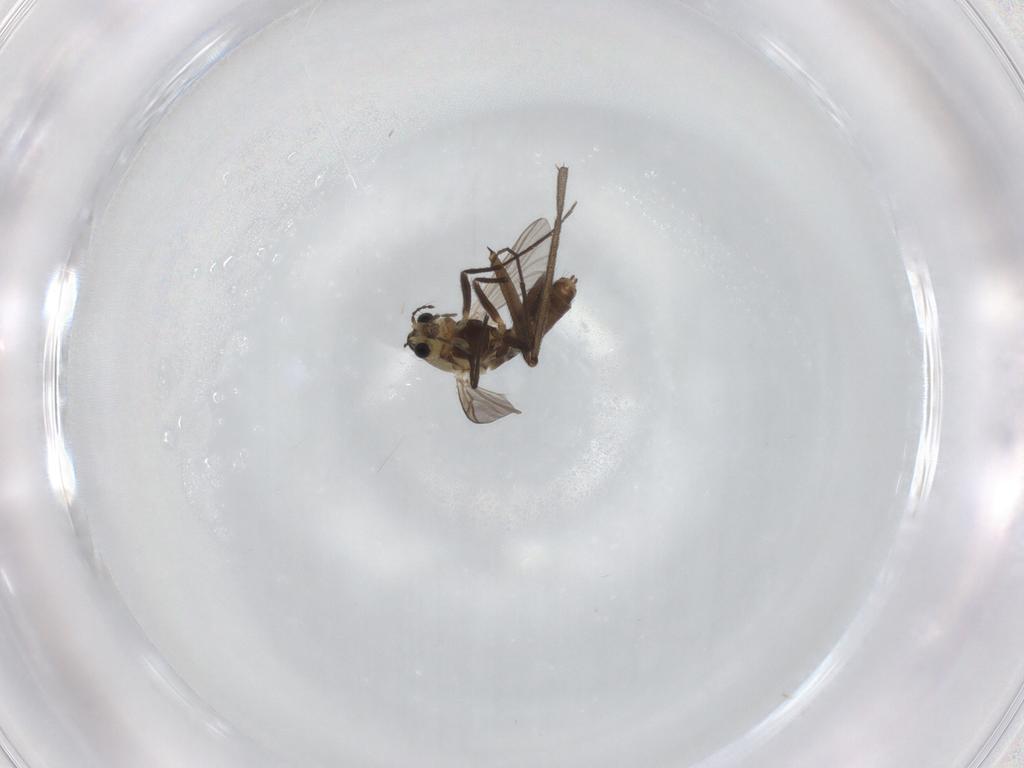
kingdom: Animalia
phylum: Arthropoda
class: Insecta
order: Diptera
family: Chironomidae
